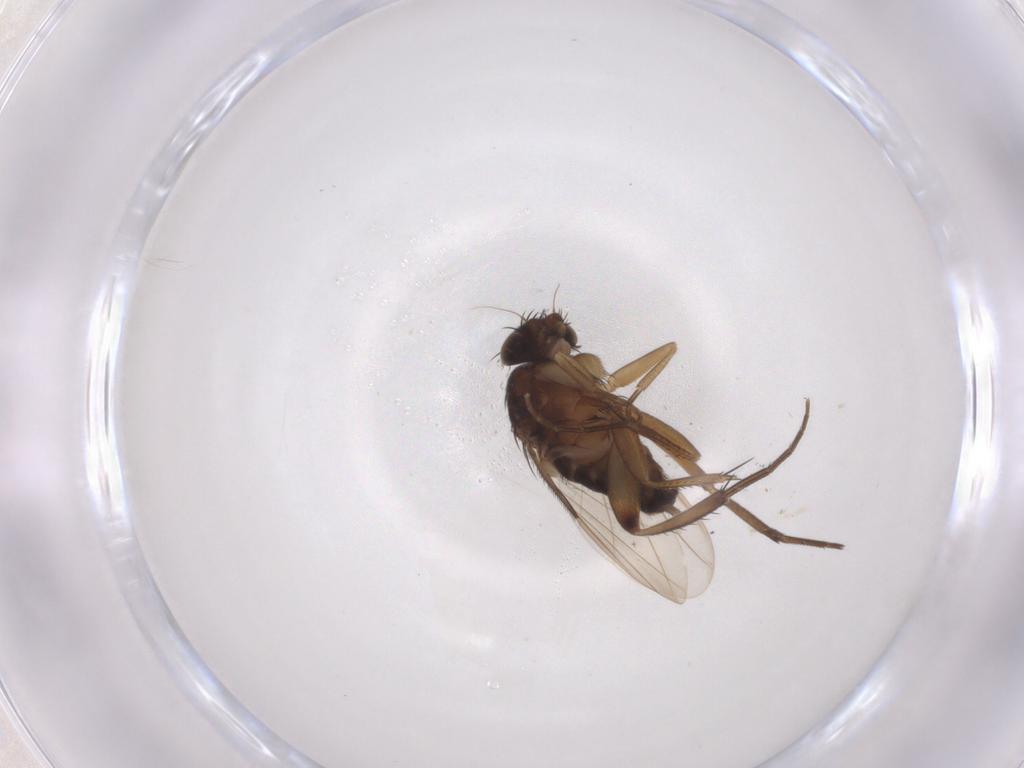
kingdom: Animalia
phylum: Arthropoda
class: Insecta
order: Diptera
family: Phoridae
